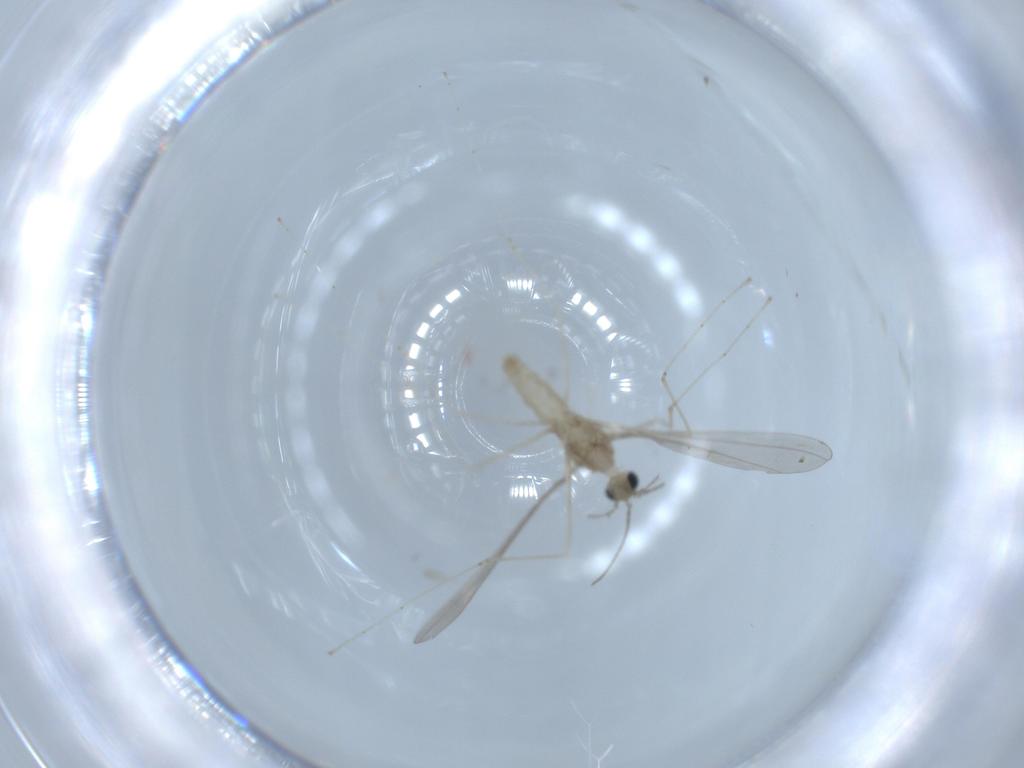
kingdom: Animalia
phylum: Arthropoda
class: Insecta
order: Diptera
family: Cecidomyiidae
